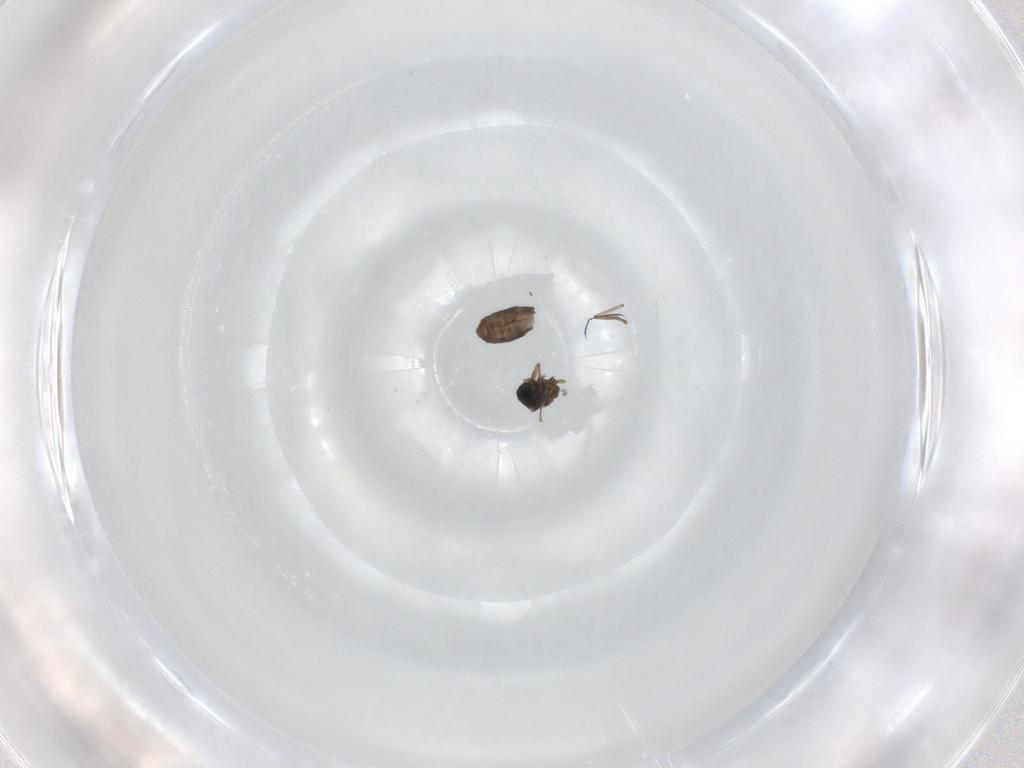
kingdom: Animalia
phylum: Arthropoda
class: Insecta
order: Diptera
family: Ceratopogonidae
